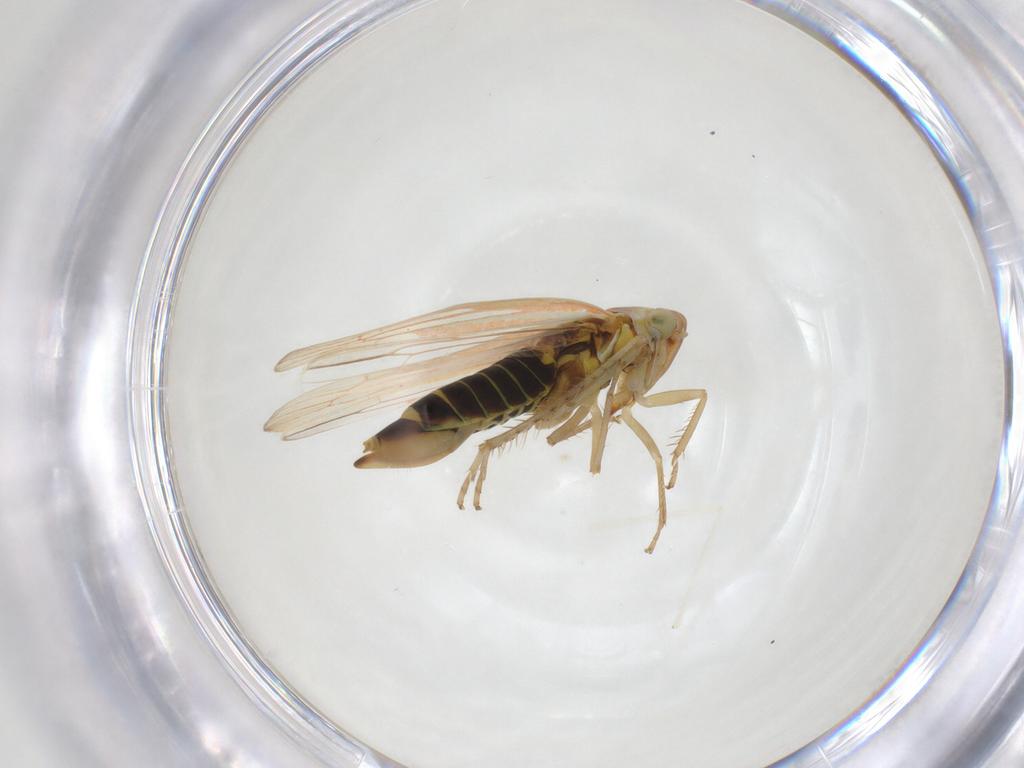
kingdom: Animalia
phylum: Arthropoda
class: Insecta
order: Hemiptera
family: Cicadellidae
